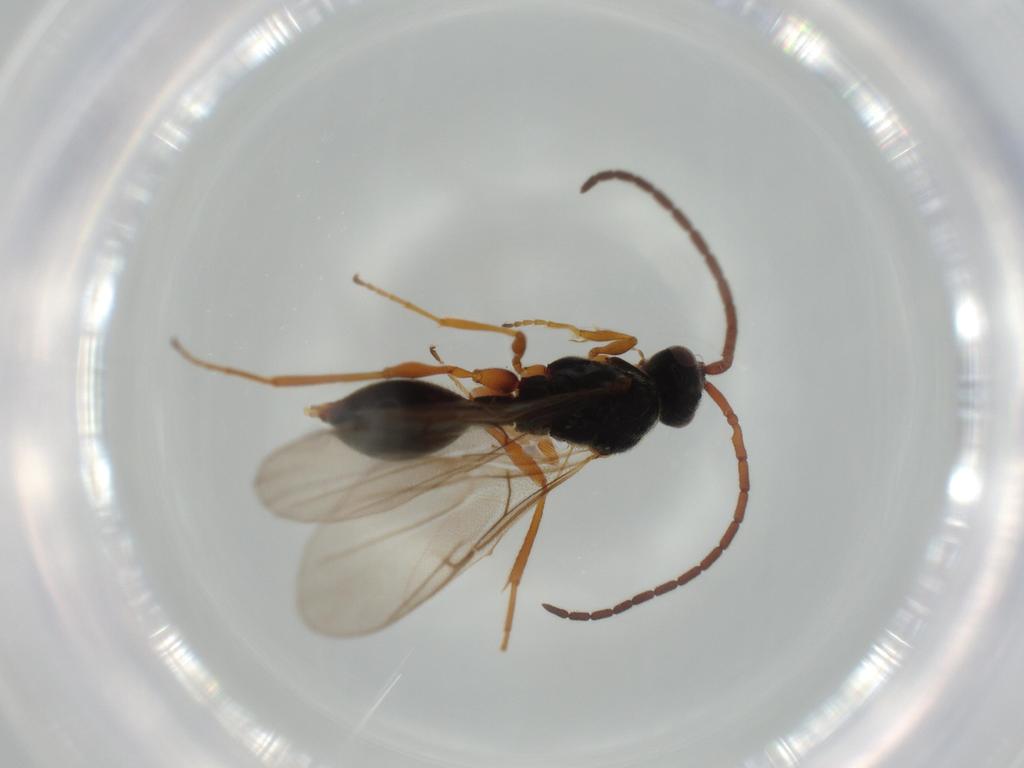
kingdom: Animalia
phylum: Arthropoda
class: Insecta
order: Hymenoptera
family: Diapriidae
